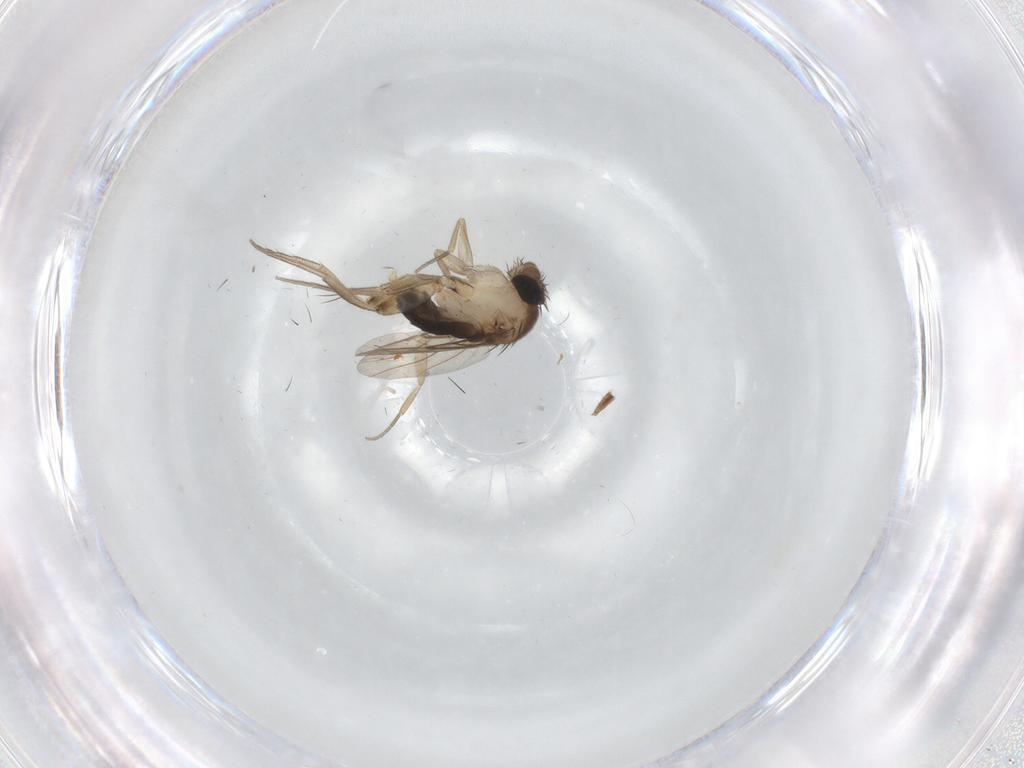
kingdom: Animalia
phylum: Arthropoda
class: Insecta
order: Diptera
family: Phoridae
